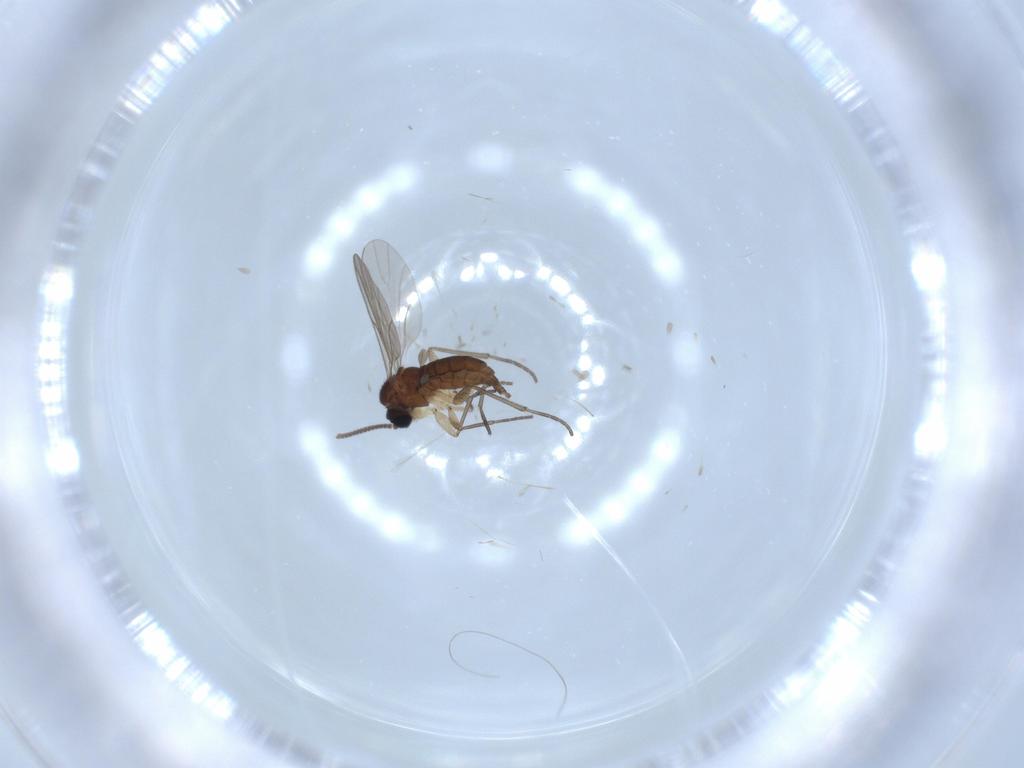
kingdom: Animalia
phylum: Arthropoda
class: Insecta
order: Diptera
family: Sciaridae
